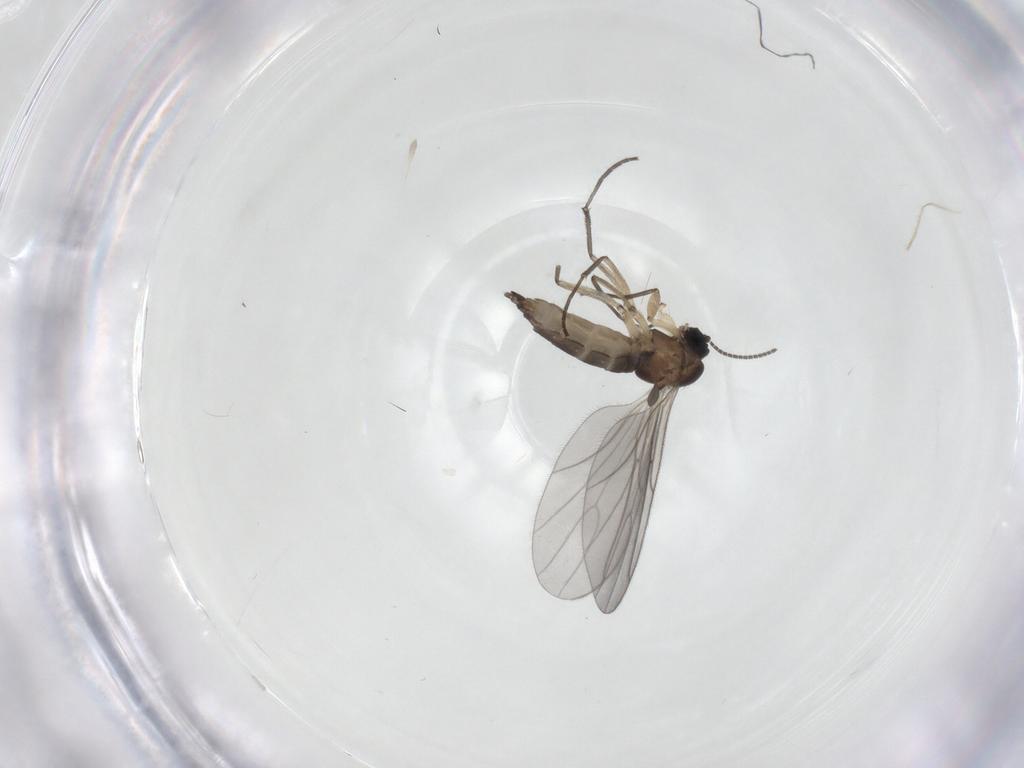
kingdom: Animalia
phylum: Arthropoda
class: Insecta
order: Diptera
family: Sciaridae
